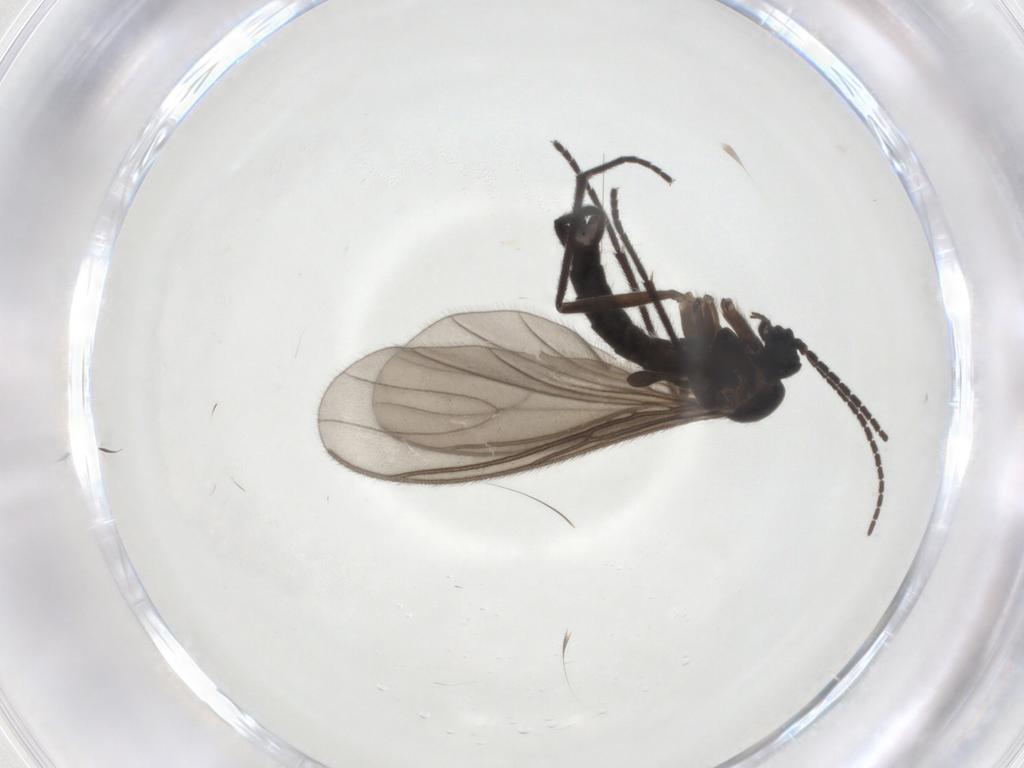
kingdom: Animalia
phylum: Arthropoda
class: Insecta
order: Diptera
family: Sciaridae
